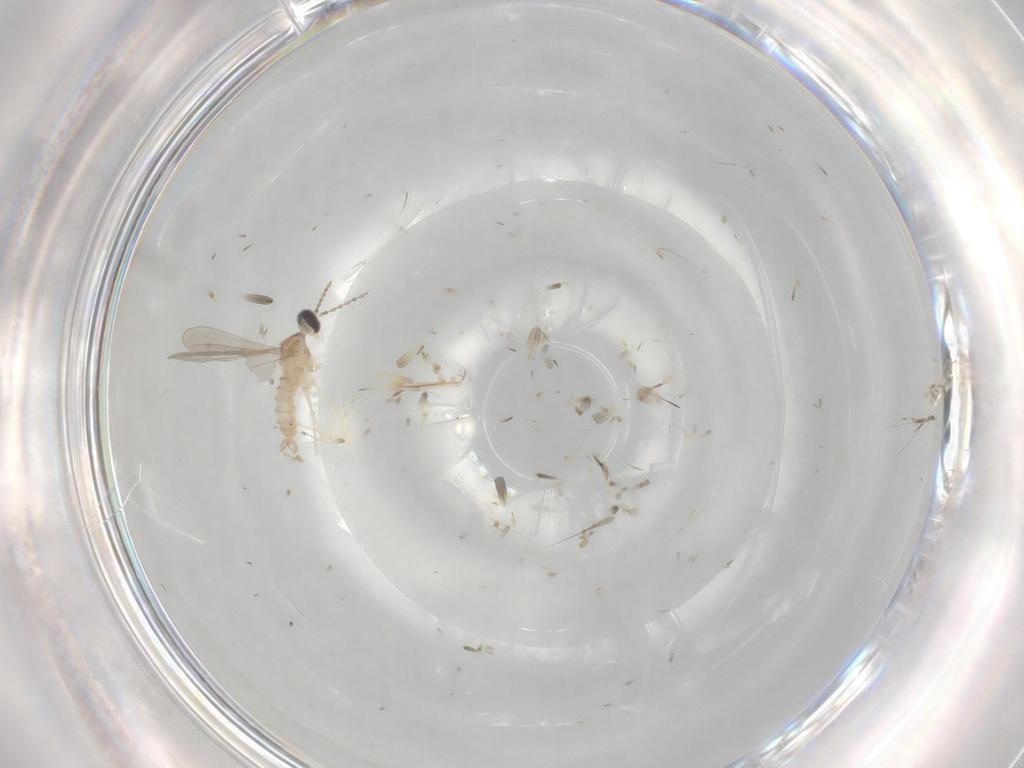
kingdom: Animalia
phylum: Arthropoda
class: Insecta
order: Diptera
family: Cecidomyiidae
